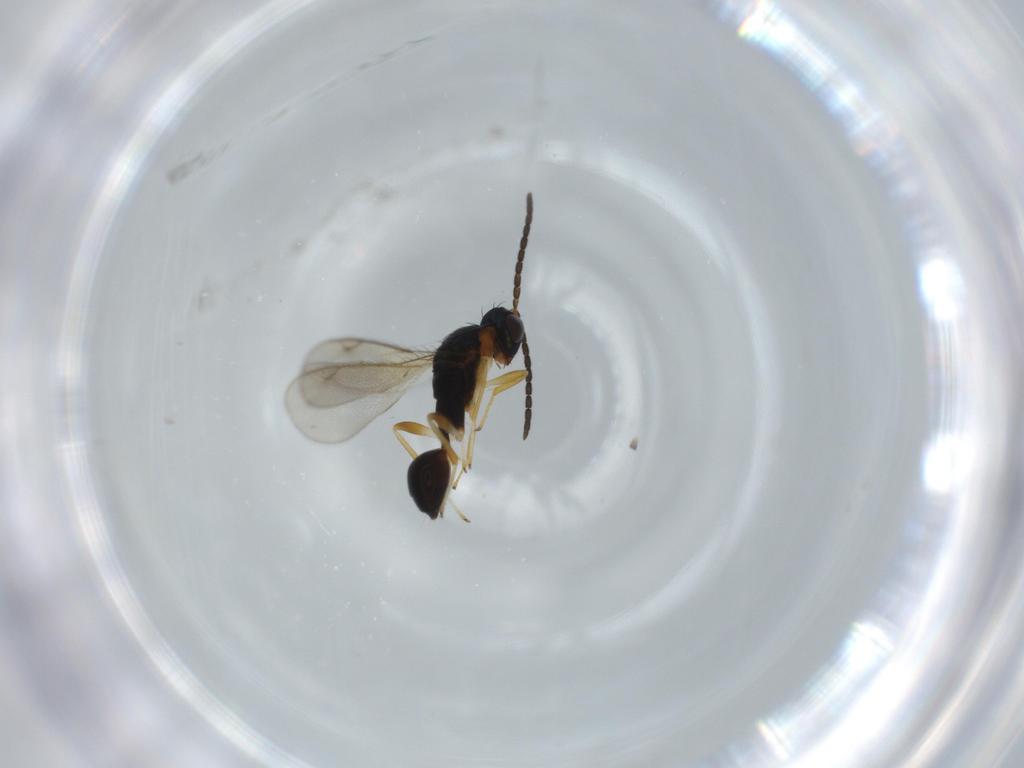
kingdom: Animalia
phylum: Arthropoda
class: Insecta
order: Hymenoptera
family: Diparidae
